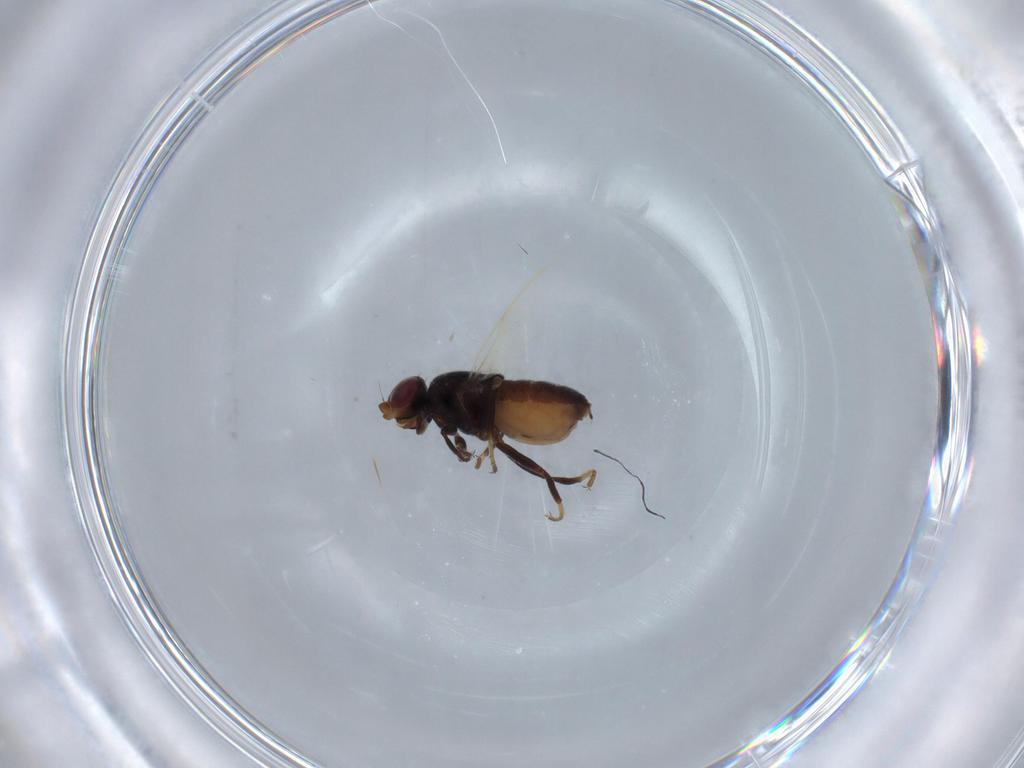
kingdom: Animalia
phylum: Arthropoda
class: Insecta
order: Diptera
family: Chloropidae
